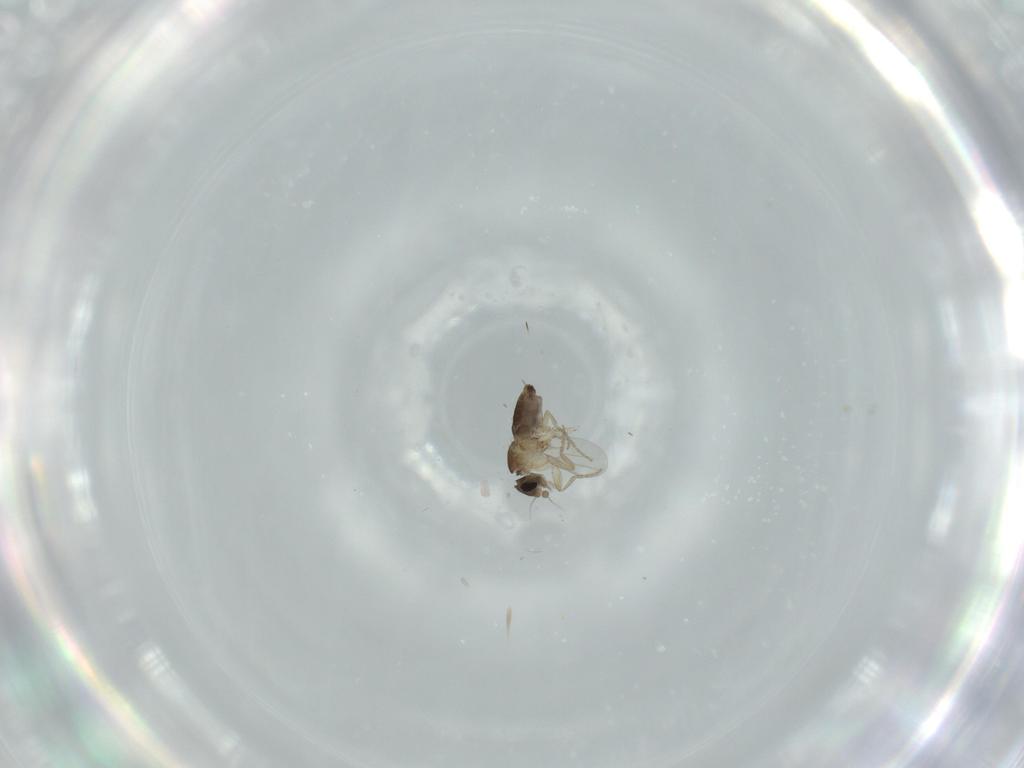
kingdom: Animalia
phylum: Arthropoda
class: Insecta
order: Diptera
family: Phoridae
